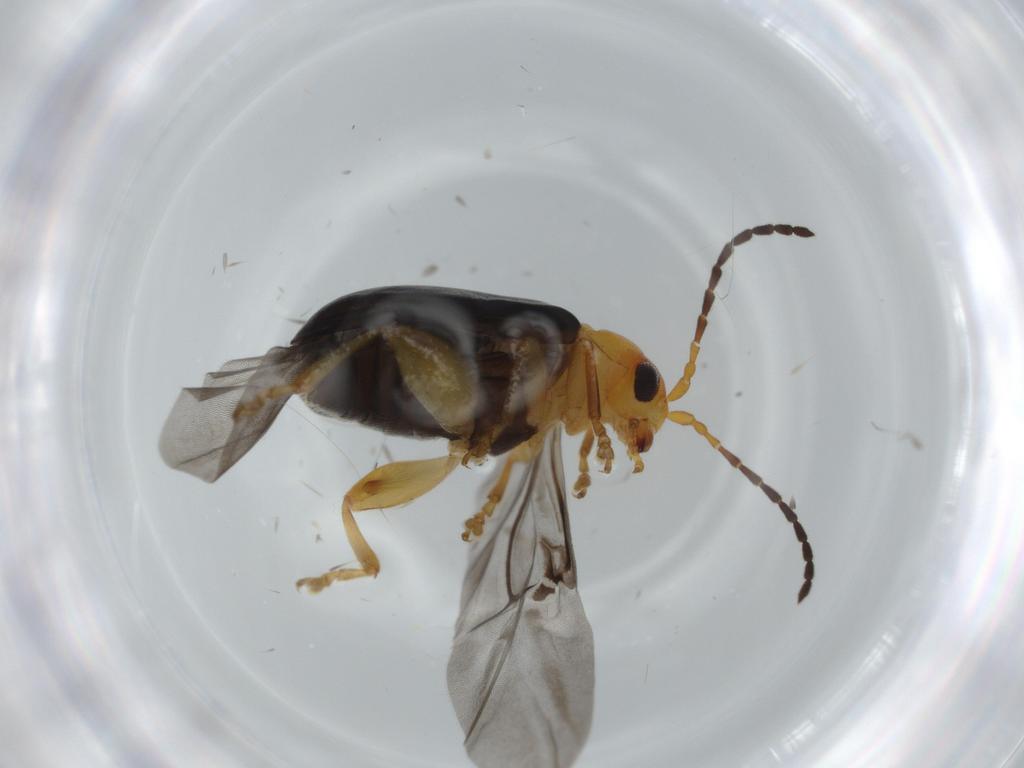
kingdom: Animalia
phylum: Arthropoda
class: Insecta
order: Coleoptera
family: Chrysomelidae
